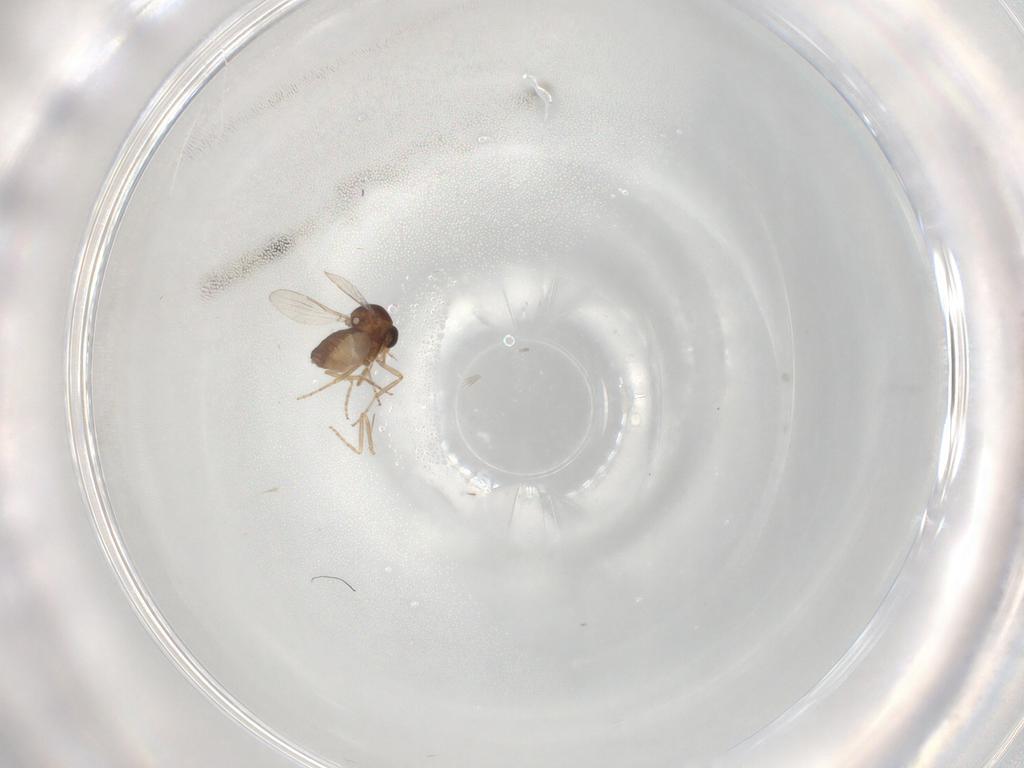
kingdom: Animalia
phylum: Arthropoda
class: Insecta
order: Diptera
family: Ceratopogonidae
